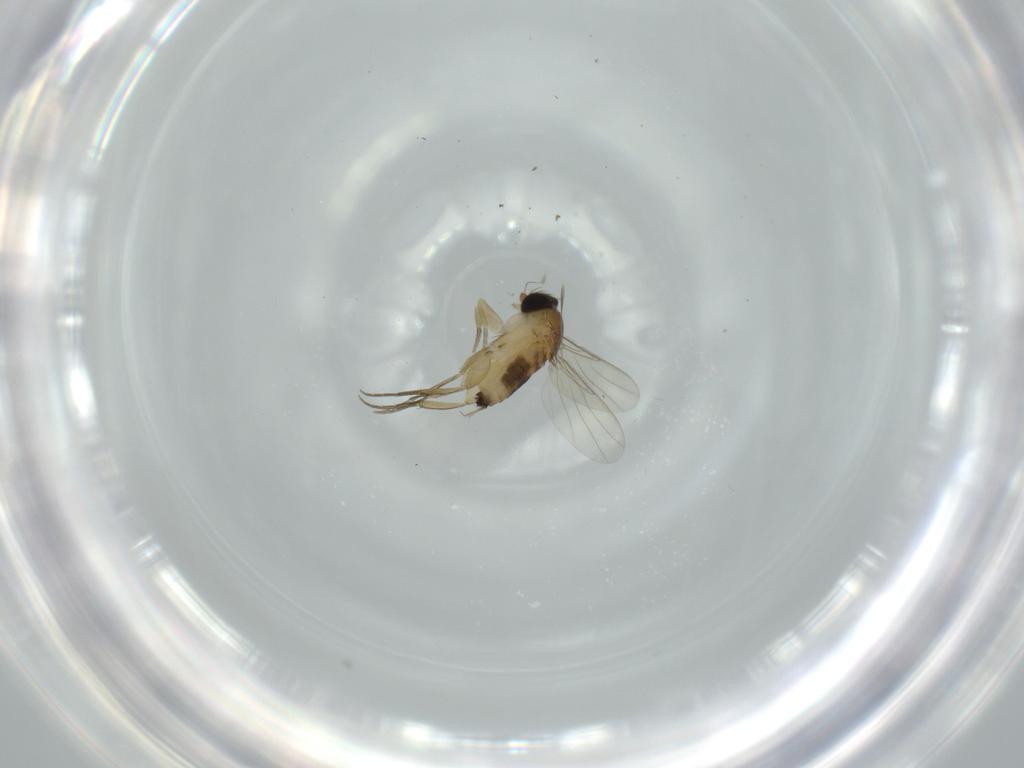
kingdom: Animalia
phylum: Arthropoda
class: Insecta
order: Diptera
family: Phoridae
